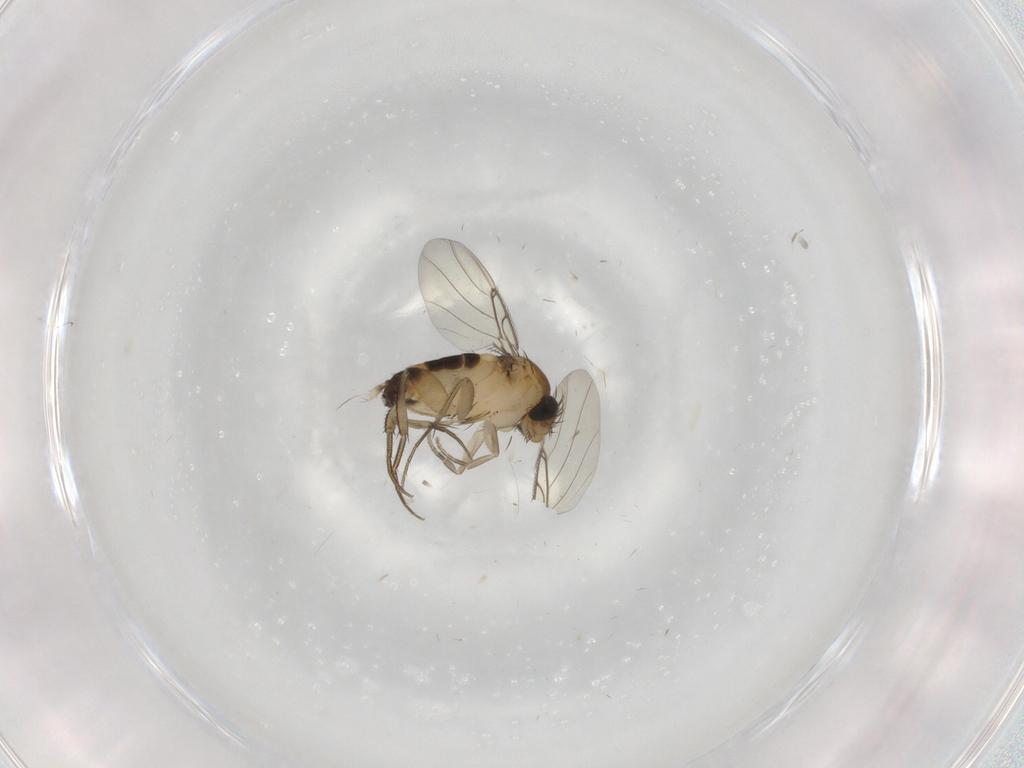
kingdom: Animalia
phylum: Arthropoda
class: Insecta
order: Diptera
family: Phoridae
